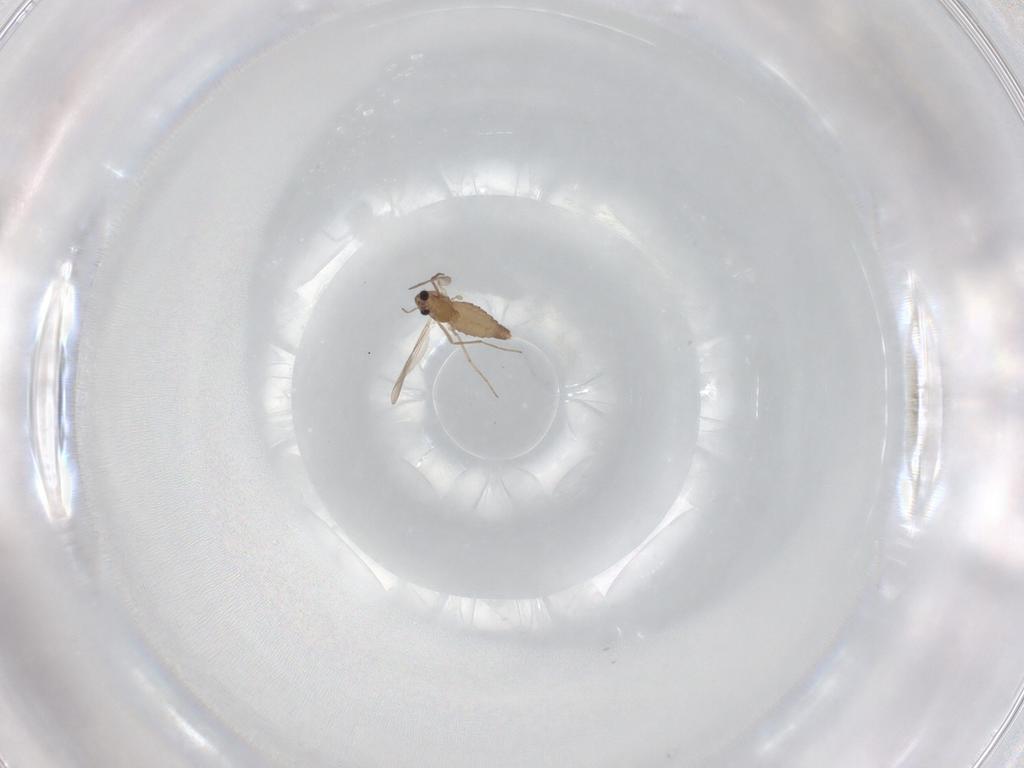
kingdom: Animalia
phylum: Arthropoda
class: Insecta
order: Diptera
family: Chironomidae
